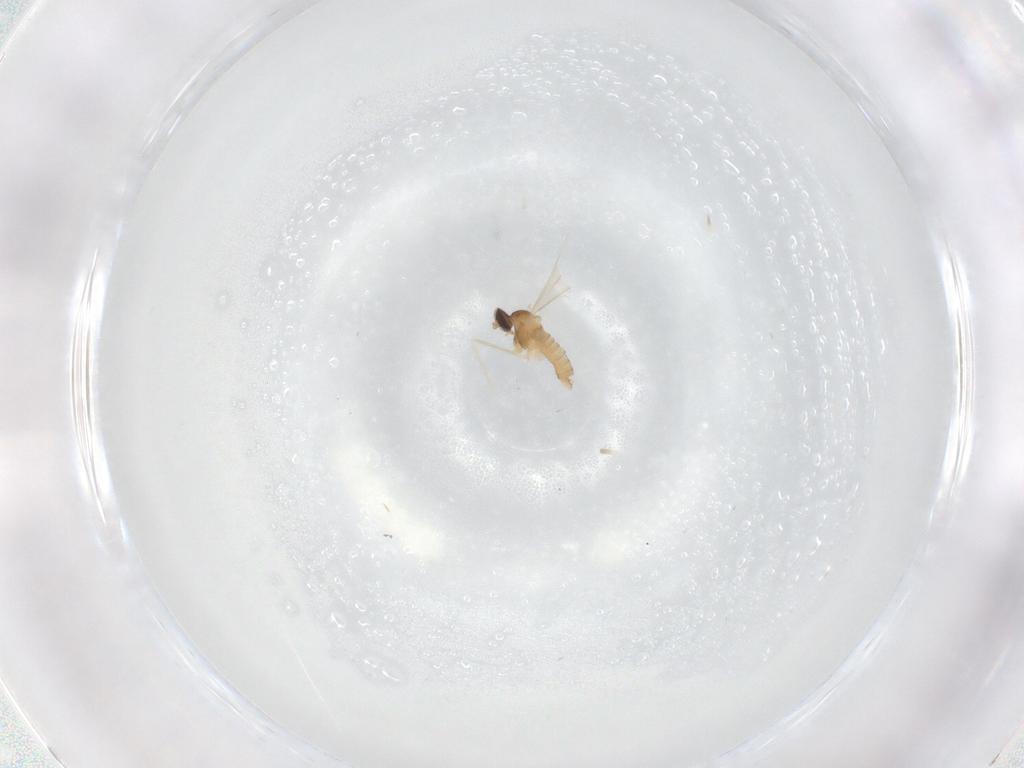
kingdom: Animalia
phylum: Arthropoda
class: Insecta
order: Diptera
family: Cecidomyiidae
